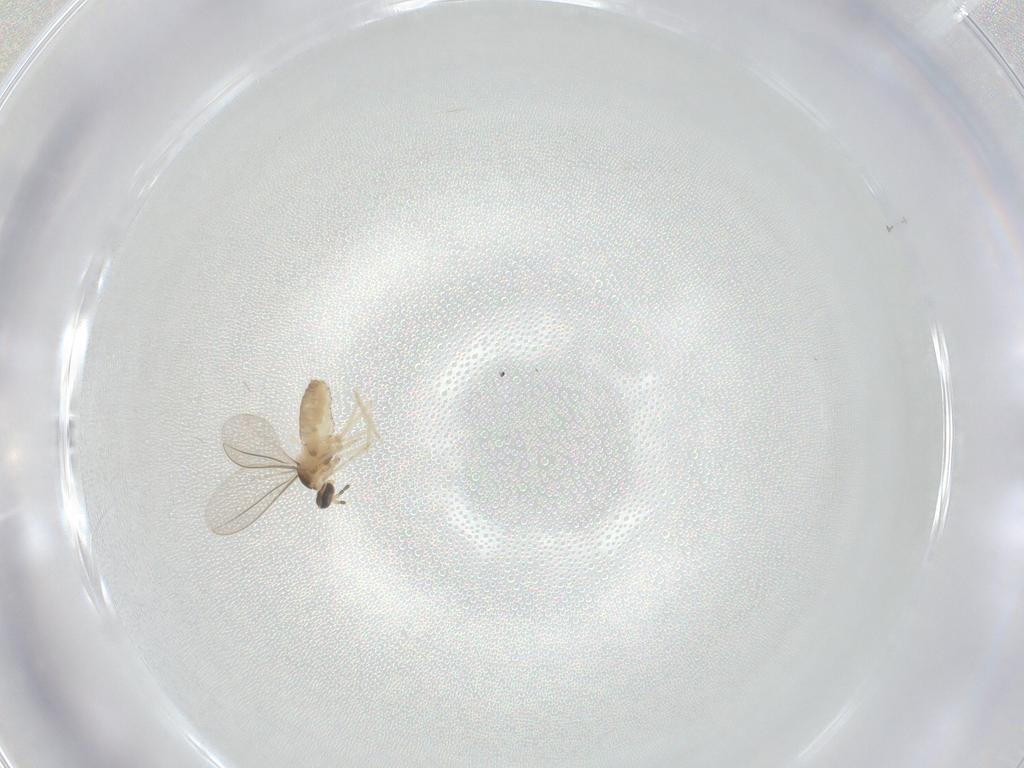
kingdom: Animalia
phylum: Arthropoda
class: Insecta
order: Diptera
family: Cecidomyiidae
